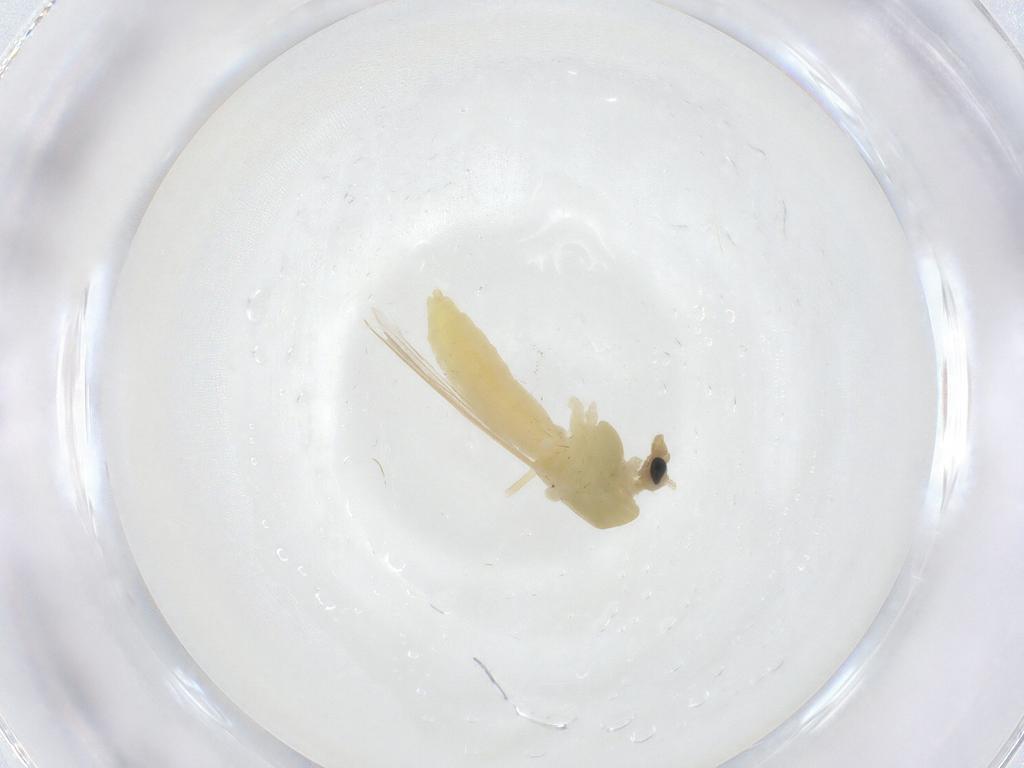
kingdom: Animalia
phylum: Arthropoda
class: Insecta
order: Diptera
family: Chironomidae
